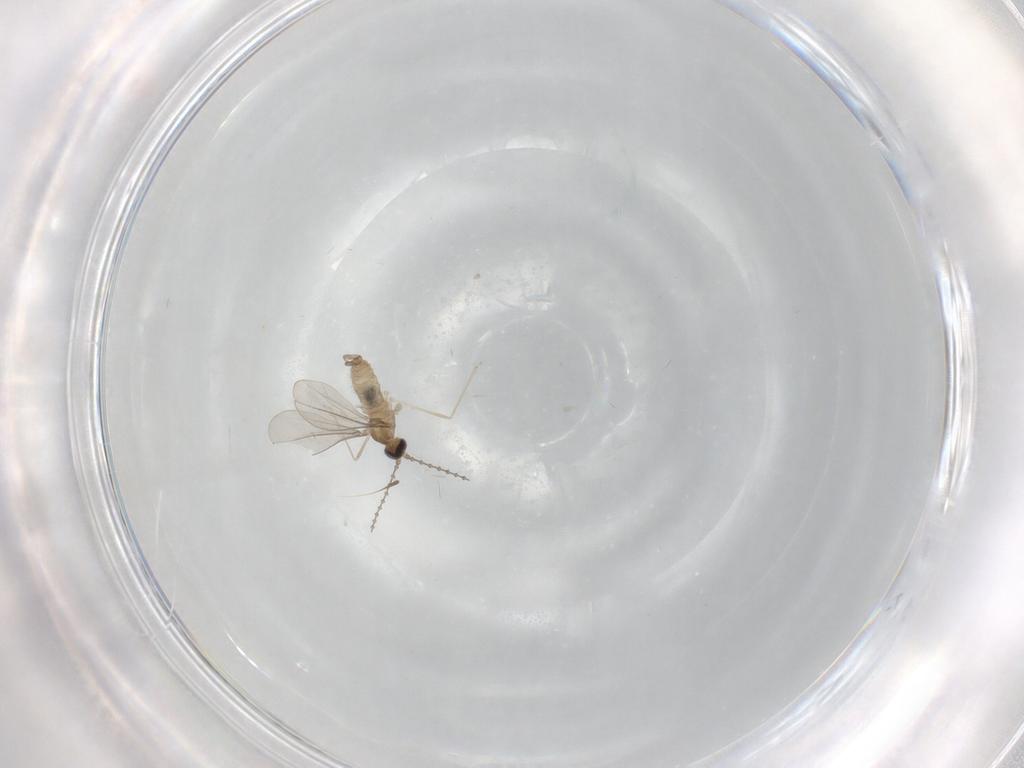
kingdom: Animalia
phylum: Arthropoda
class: Insecta
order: Diptera
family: Cecidomyiidae
